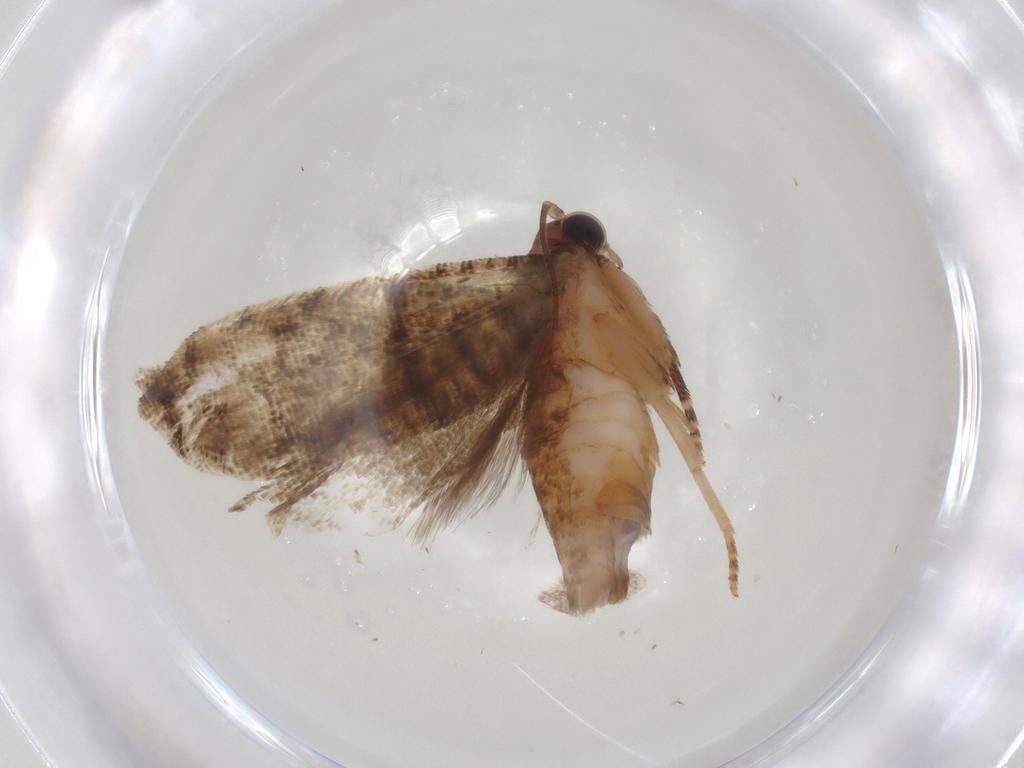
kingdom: Animalia
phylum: Arthropoda
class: Insecta
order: Lepidoptera
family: Tortricidae
